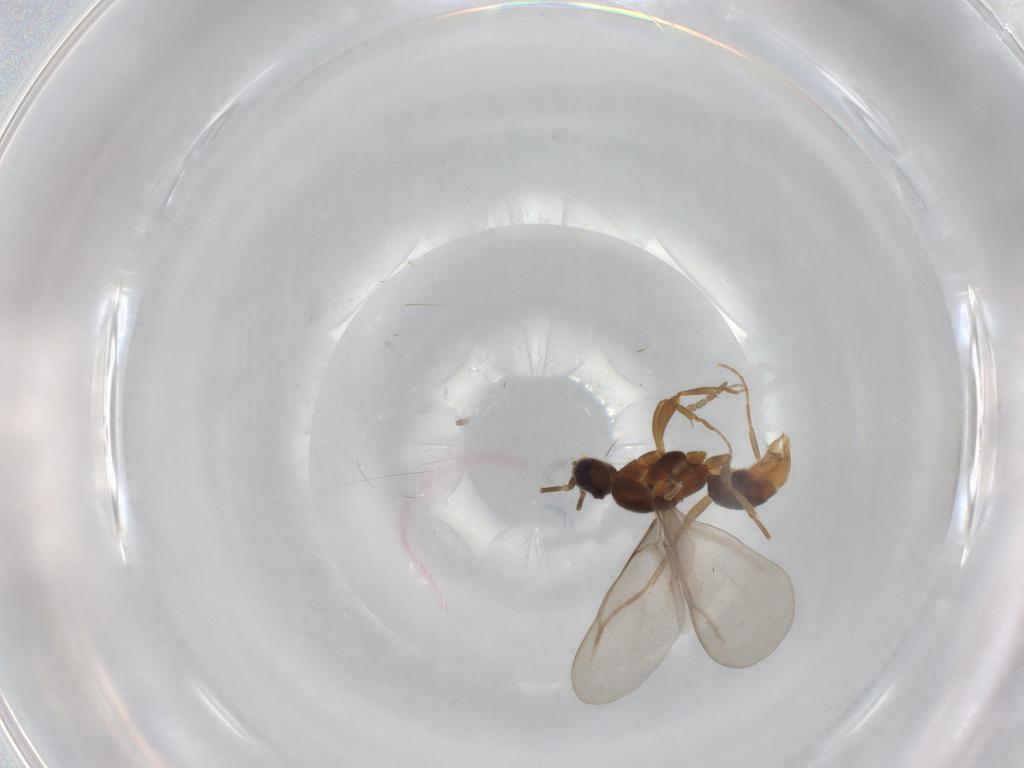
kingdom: Animalia
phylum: Arthropoda
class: Insecta
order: Hymenoptera
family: Formicidae
